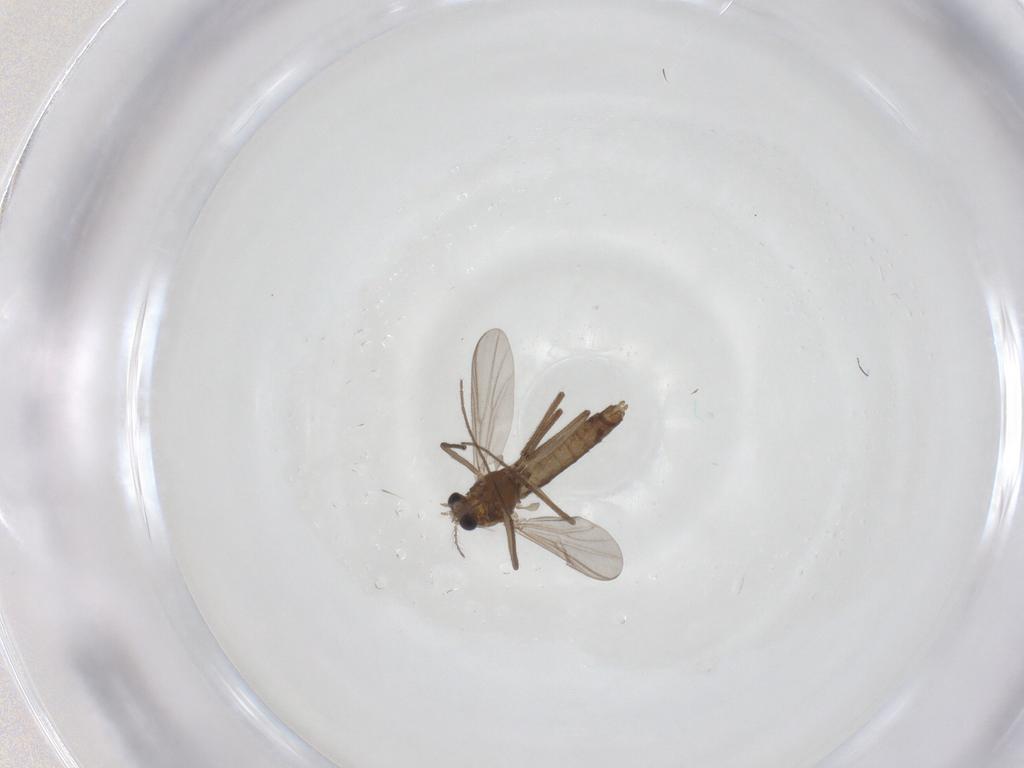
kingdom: Animalia
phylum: Arthropoda
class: Insecta
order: Diptera
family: Chironomidae
